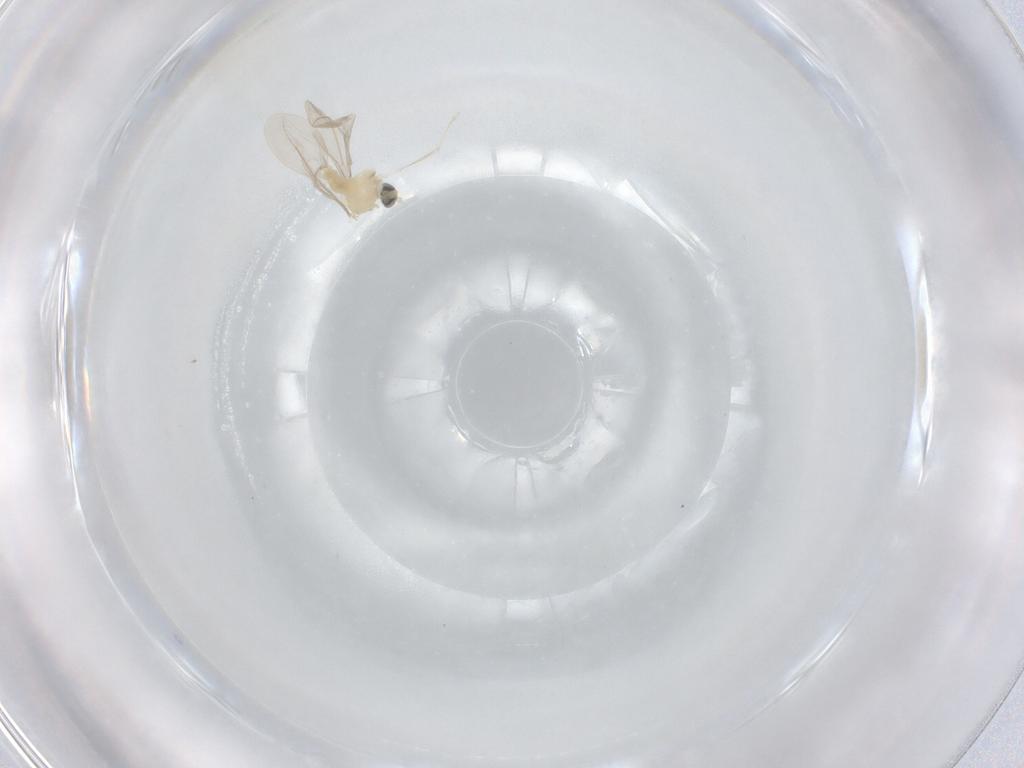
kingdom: Animalia
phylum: Arthropoda
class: Insecta
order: Diptera
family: Cecidomyiidae
